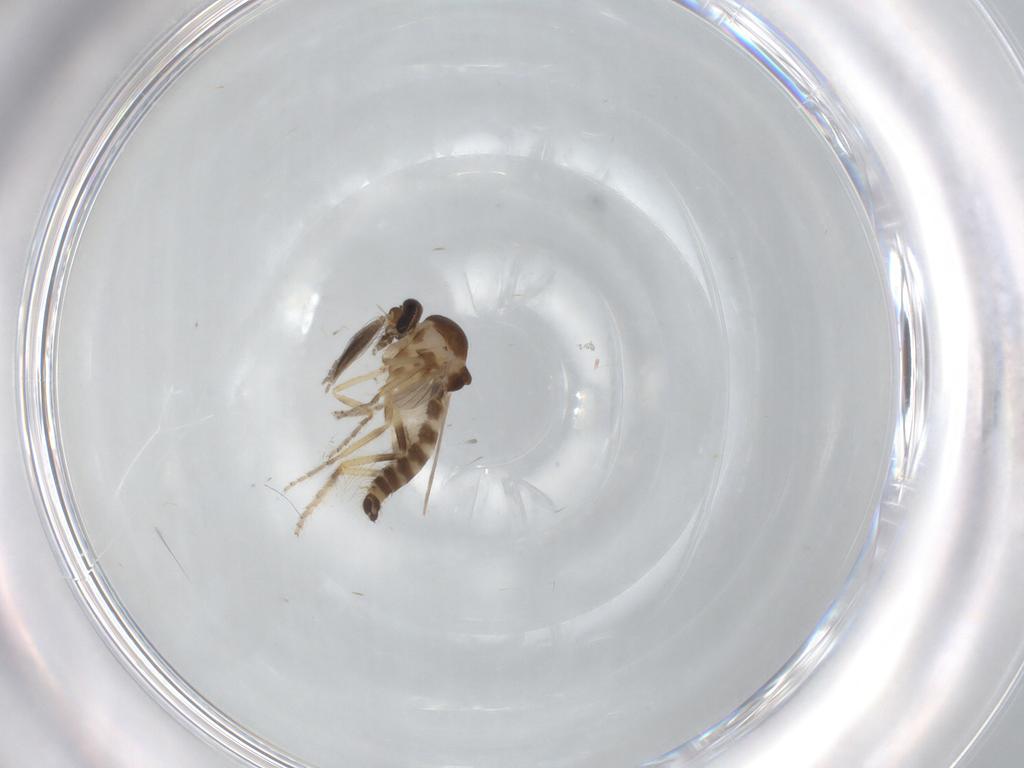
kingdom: Animalia
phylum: Arthropoda
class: Insecta
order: Diptera
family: Ceratopogonidae
